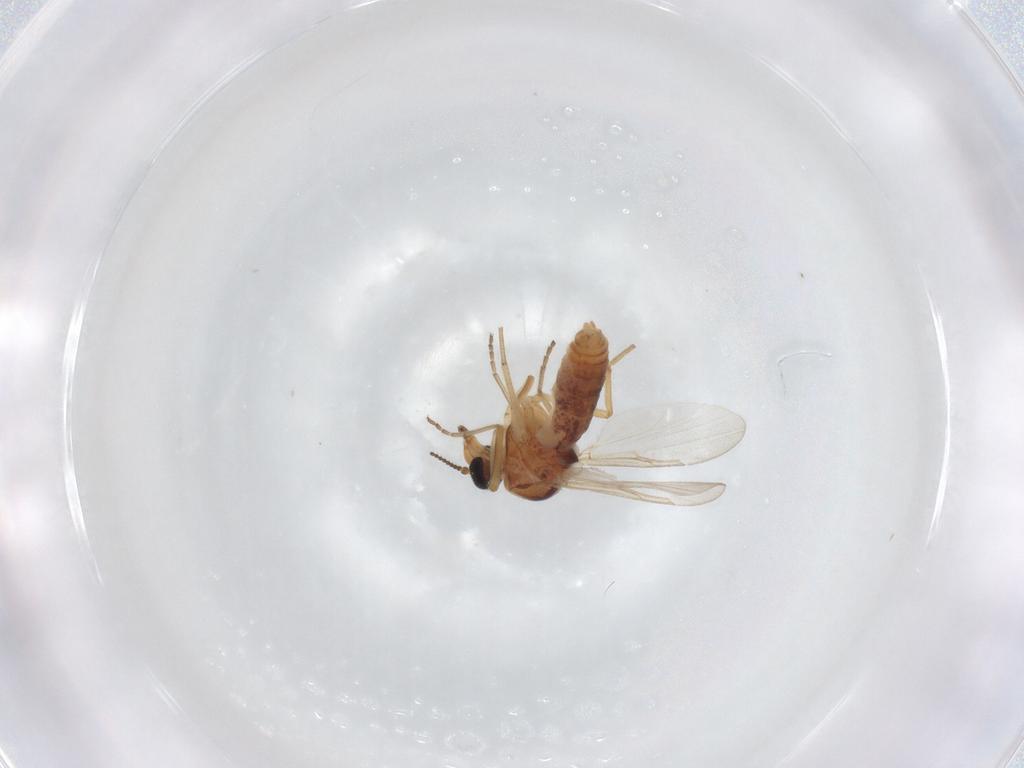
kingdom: Animalia
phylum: Arthropoda
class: Insecta
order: Diptera
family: Ceratopogonidae
